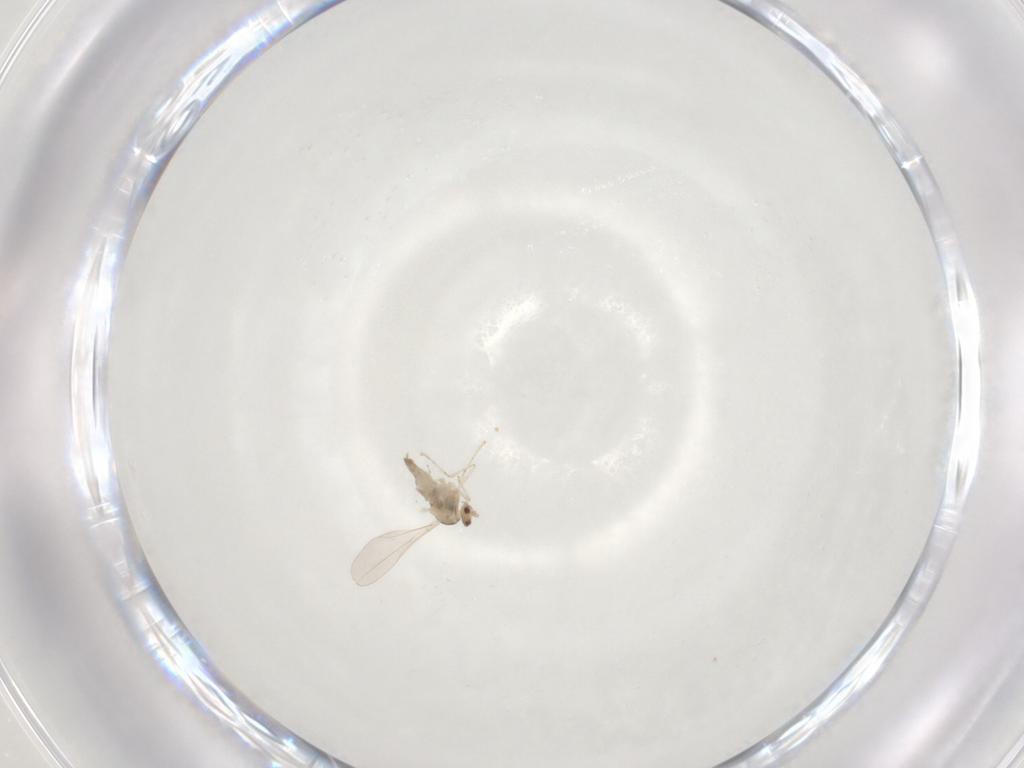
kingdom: Animalia
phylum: Arthropoda
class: Insecta
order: Diptera
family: Cecidomyiidae
